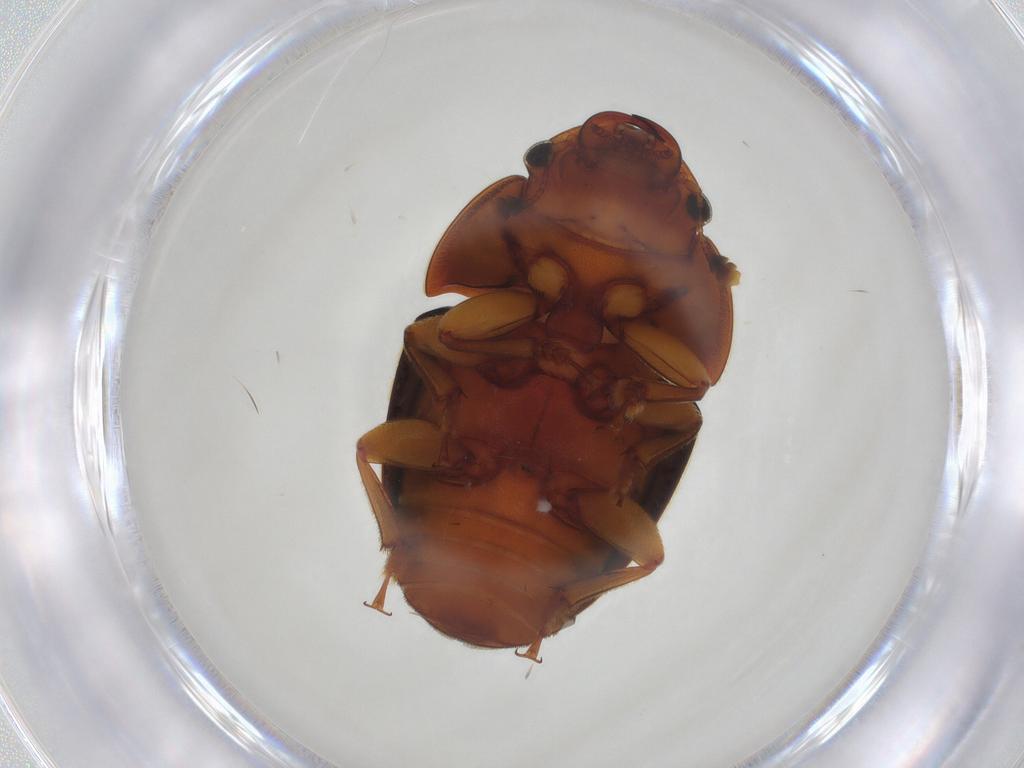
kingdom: Animalia
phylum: Arthropoda
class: Insecta
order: Coleoptera
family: Nitidulidae
